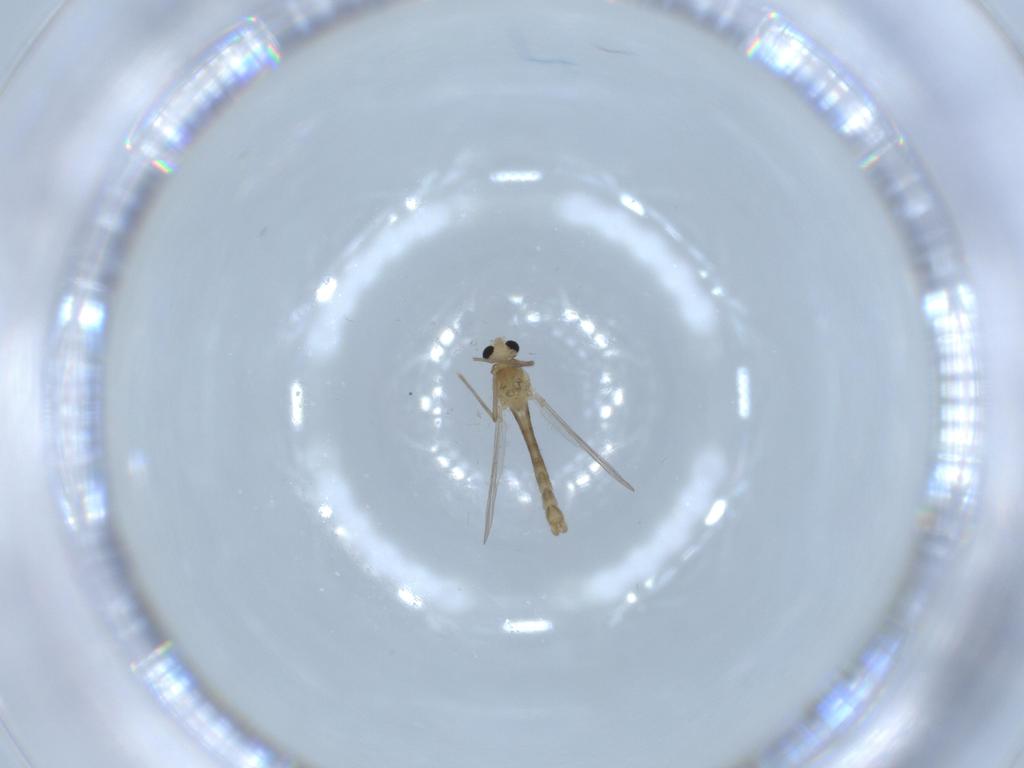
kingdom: Animalia
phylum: Arthropoda
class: Insecta
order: Diptera
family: Chironomidae
